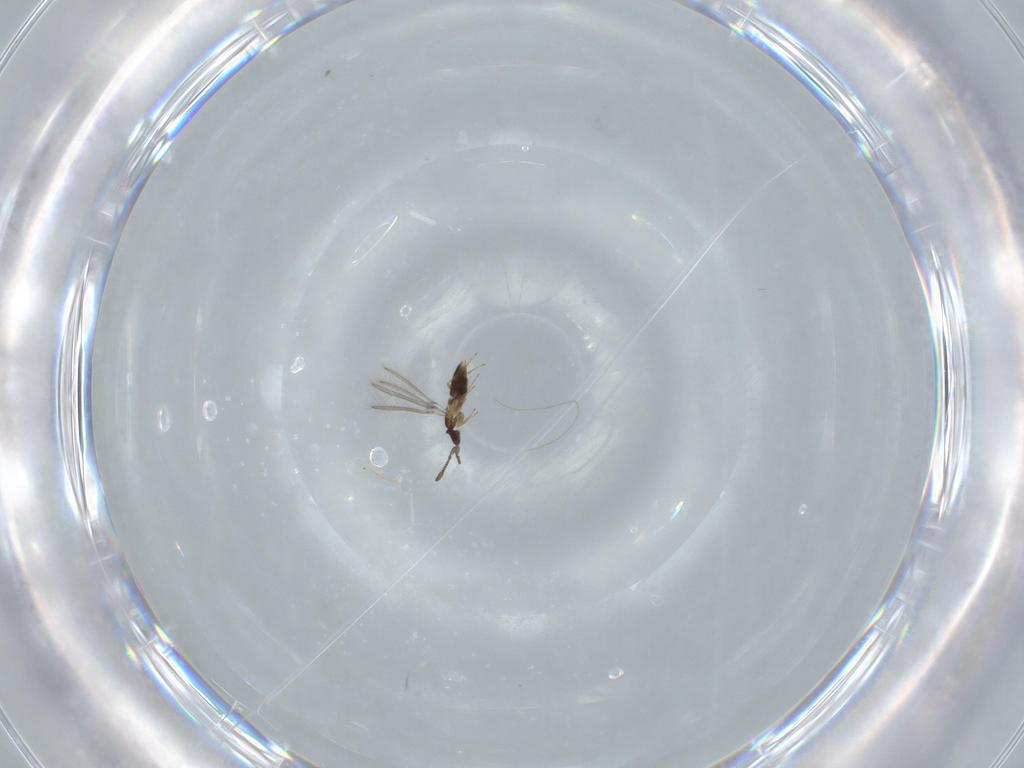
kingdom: Animalia
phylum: Arthropoda
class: Insecta
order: Hymenoptera
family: Mymaridae
